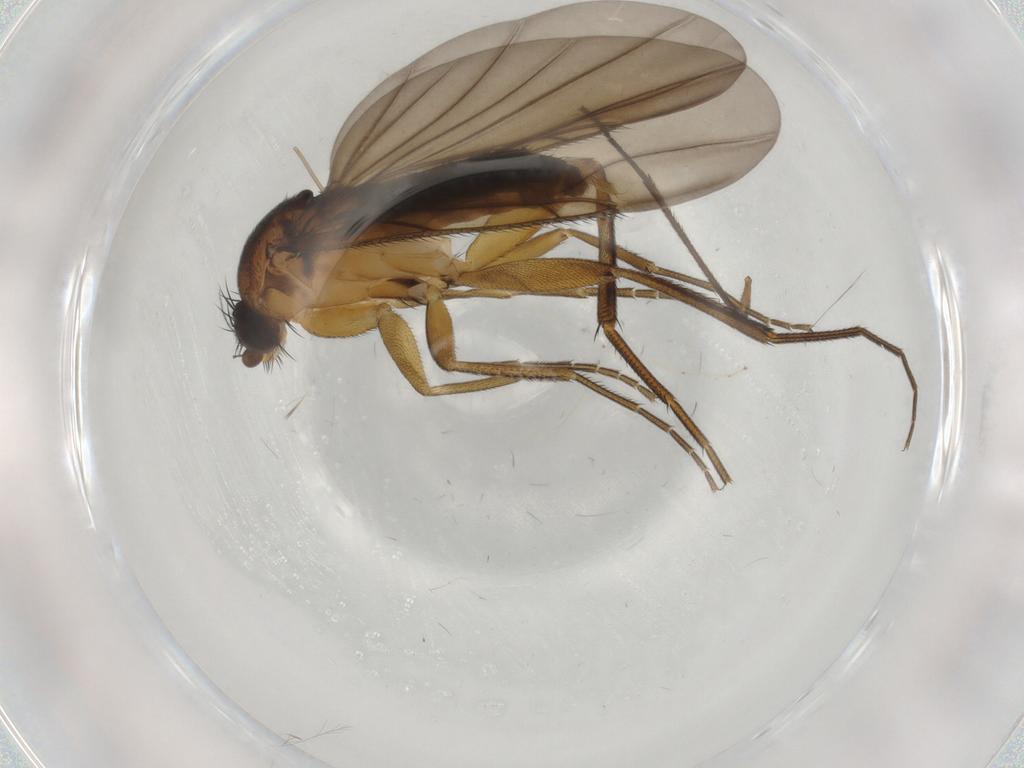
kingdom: Animalia
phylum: Arthropoda
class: Insecta
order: Diptera
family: Phoridae
